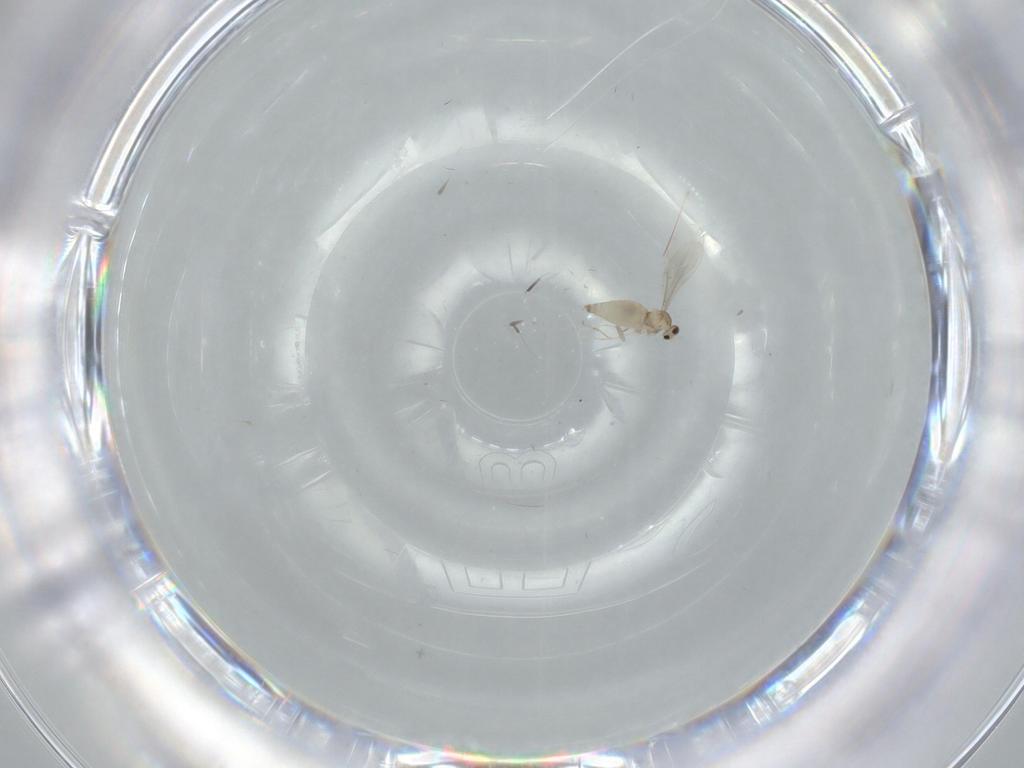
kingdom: Animalia
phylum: Arthropoda
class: Insecta
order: Diptera
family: Cecidomyiidae
